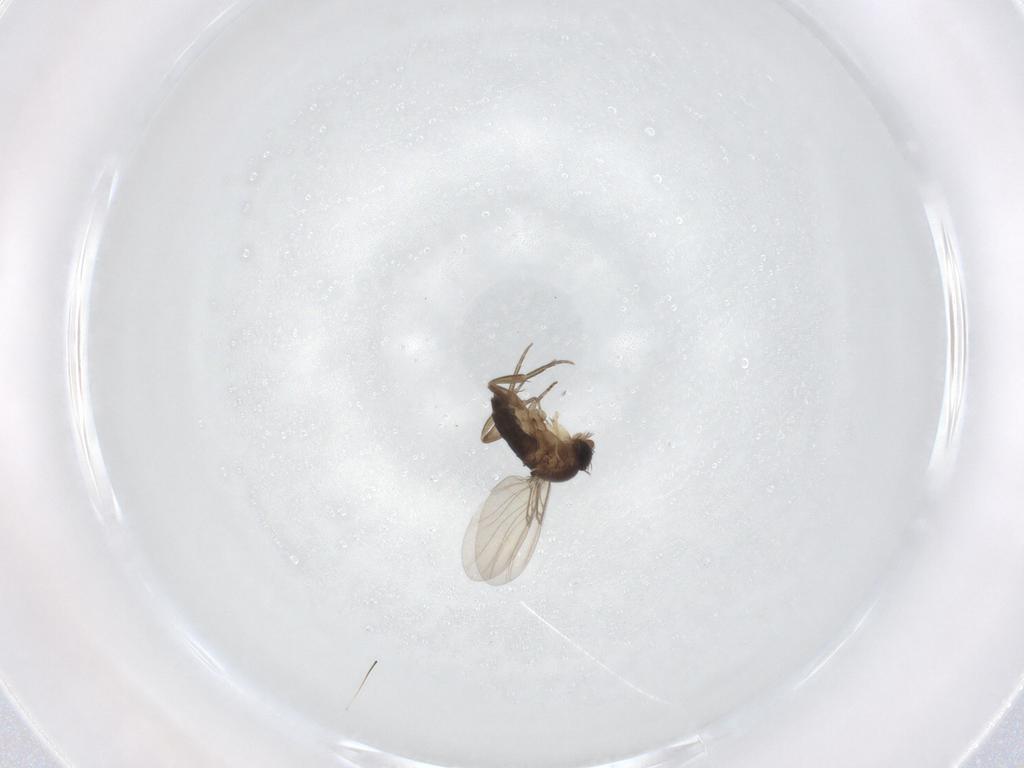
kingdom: Animalia
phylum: Arthropoda
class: Insecta
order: Diptera
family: Phoridae
